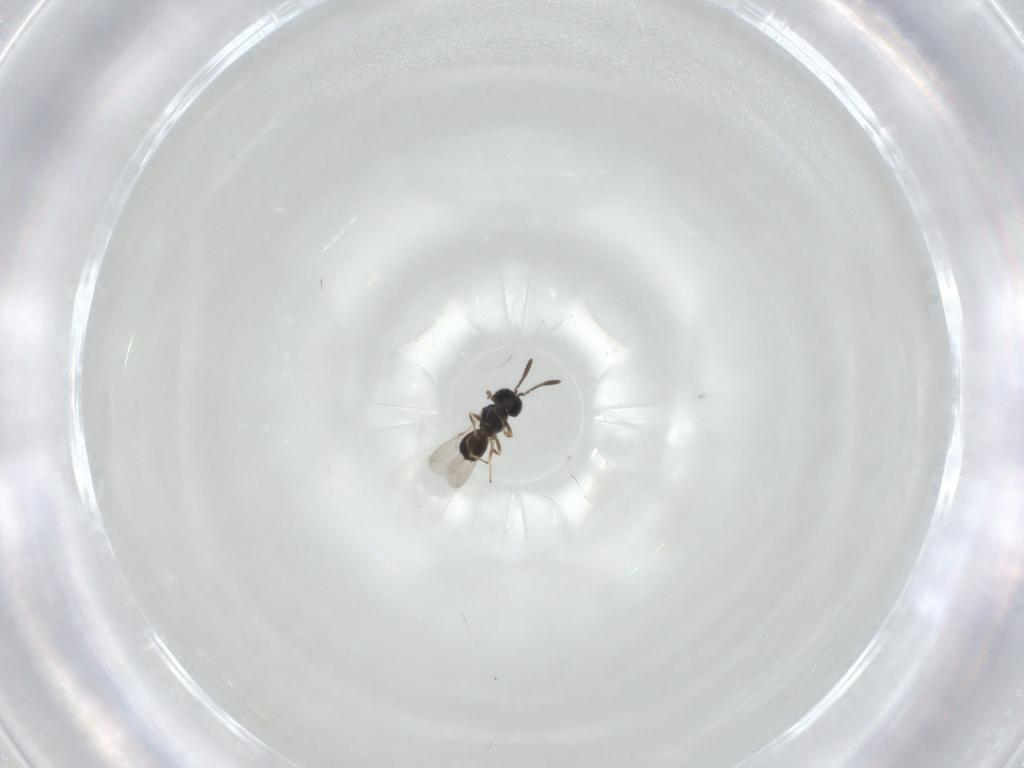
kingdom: Animalia
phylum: Arthropoda
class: Insecta
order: Hymenoptera
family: Scelionidae
